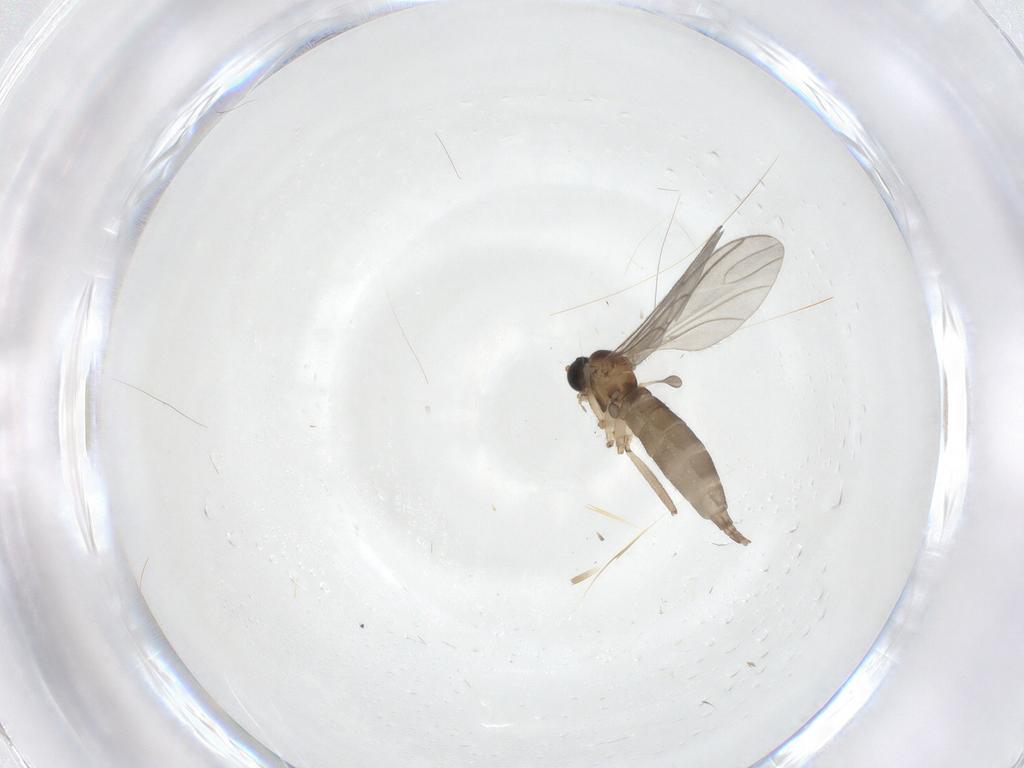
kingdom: Animalia
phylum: Arthropoda
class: Insecta
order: Diptera
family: Sciaridae
